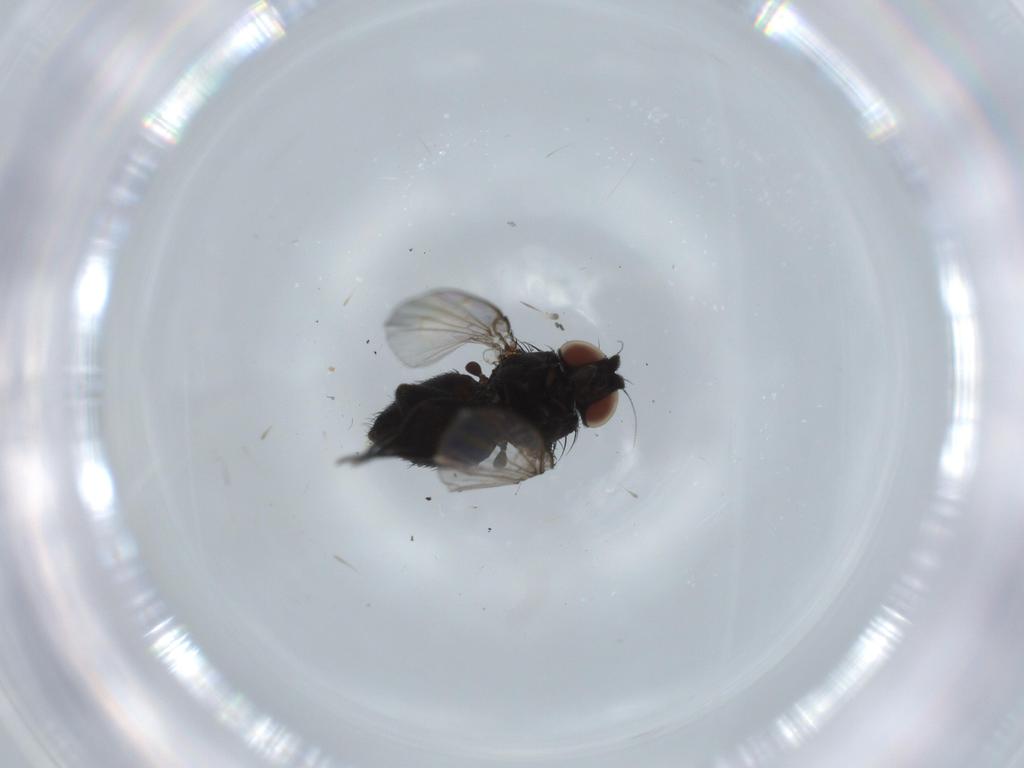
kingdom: Animalia
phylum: Arthropoda
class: Insecta
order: Diptera
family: Milichiidae
